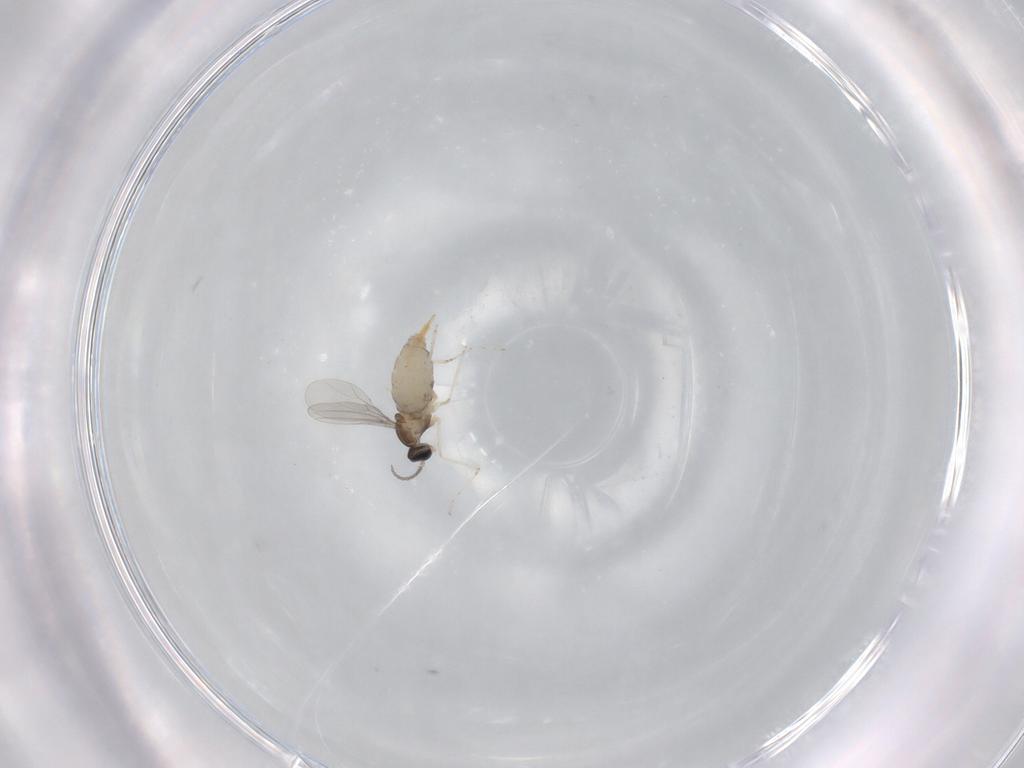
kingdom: Animalia
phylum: Arthropoda
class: Insecta
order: Diptera
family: Cecidomyiidae
